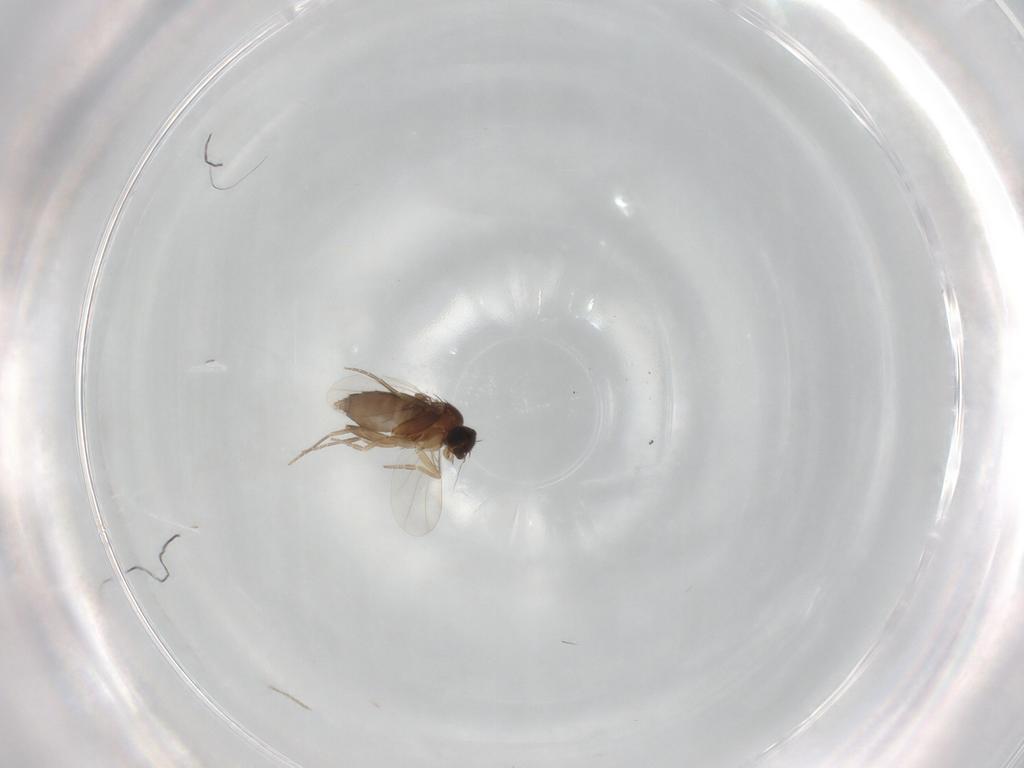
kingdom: Animalia
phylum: Arthropoda
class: Insecta
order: Diptera
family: Phoridae
